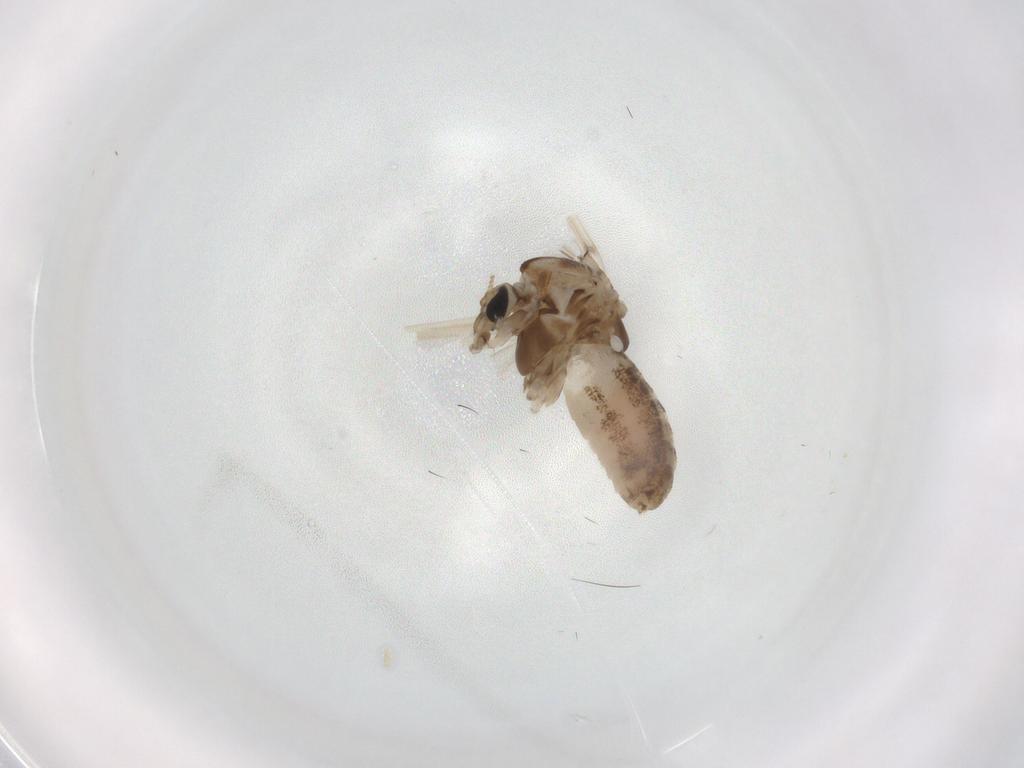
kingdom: Animalia
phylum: Arthropoda
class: Insecta
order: Diptera
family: Chironomidae
